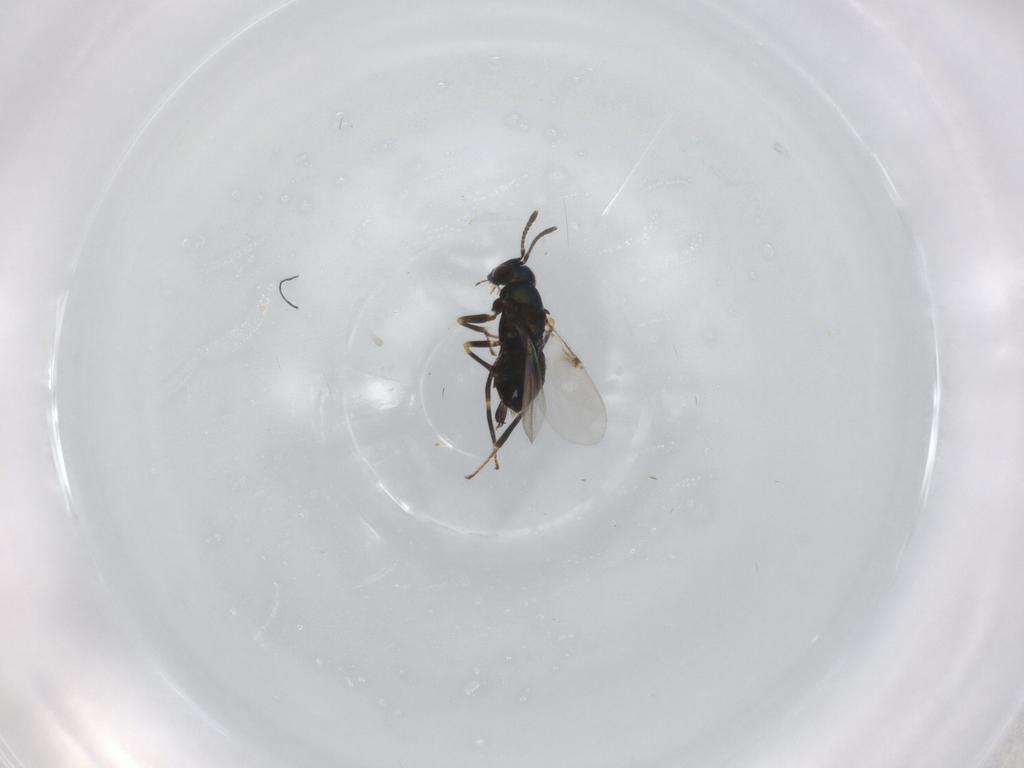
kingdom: Animalia
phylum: Arthropoda
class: Insecta
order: Hymenoptera
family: Encyrtidae
